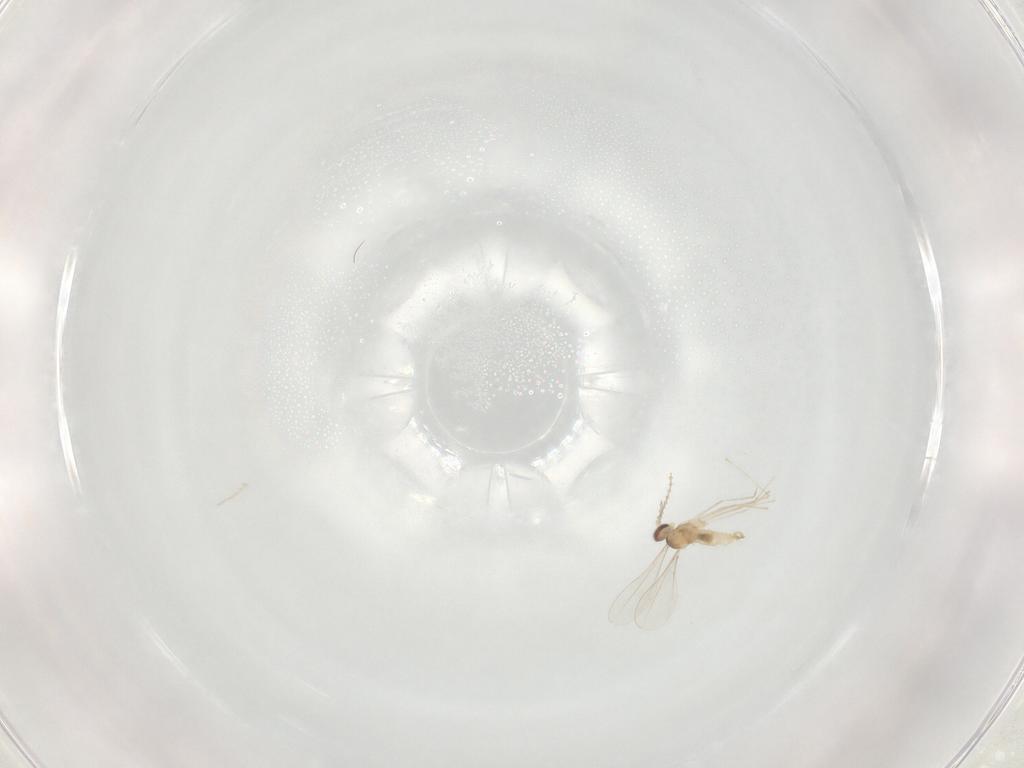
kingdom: Animalia
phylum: Arthropoda
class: Insecta
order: Diptera
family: Cecidomyiidae
